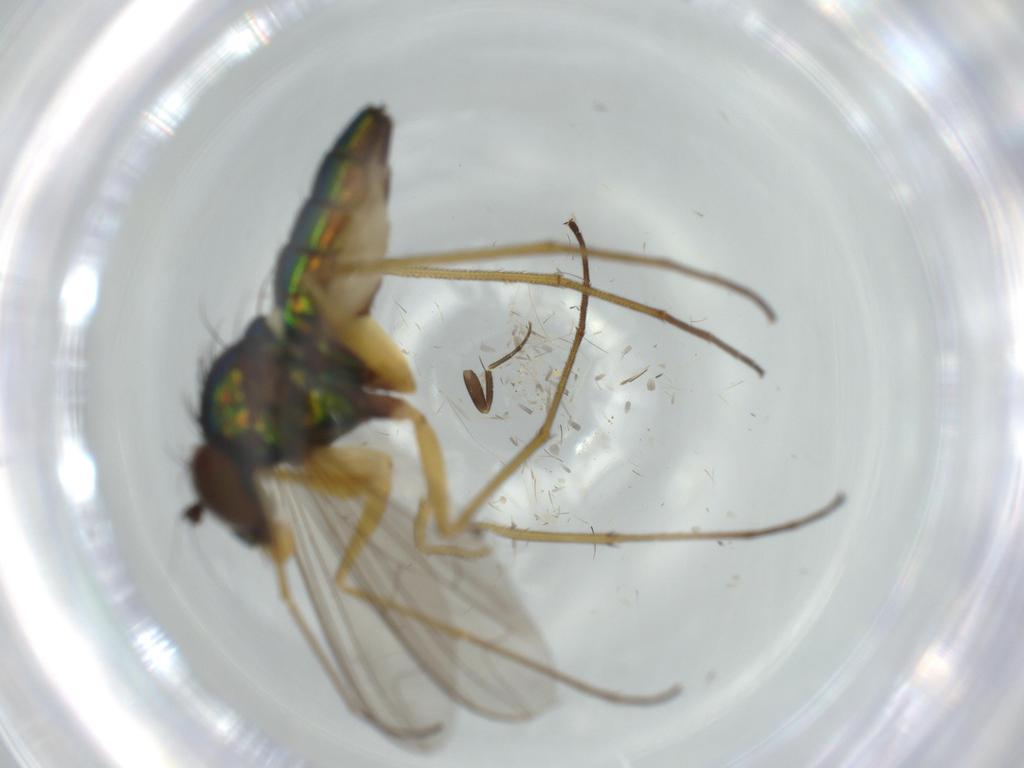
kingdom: Animalia
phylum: Arthropoda
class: Insecta
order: Diptera
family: Dolichopodidae
